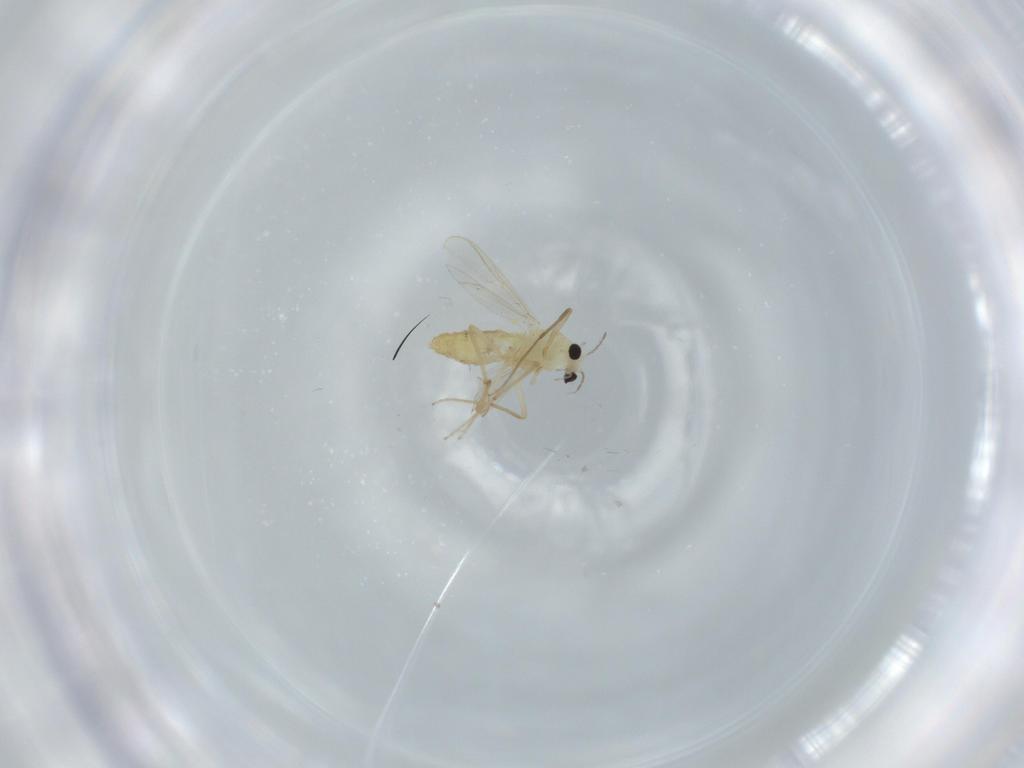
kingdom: Animalia
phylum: Arthropoda
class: Insecta
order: Diptera
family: Chironomidae
